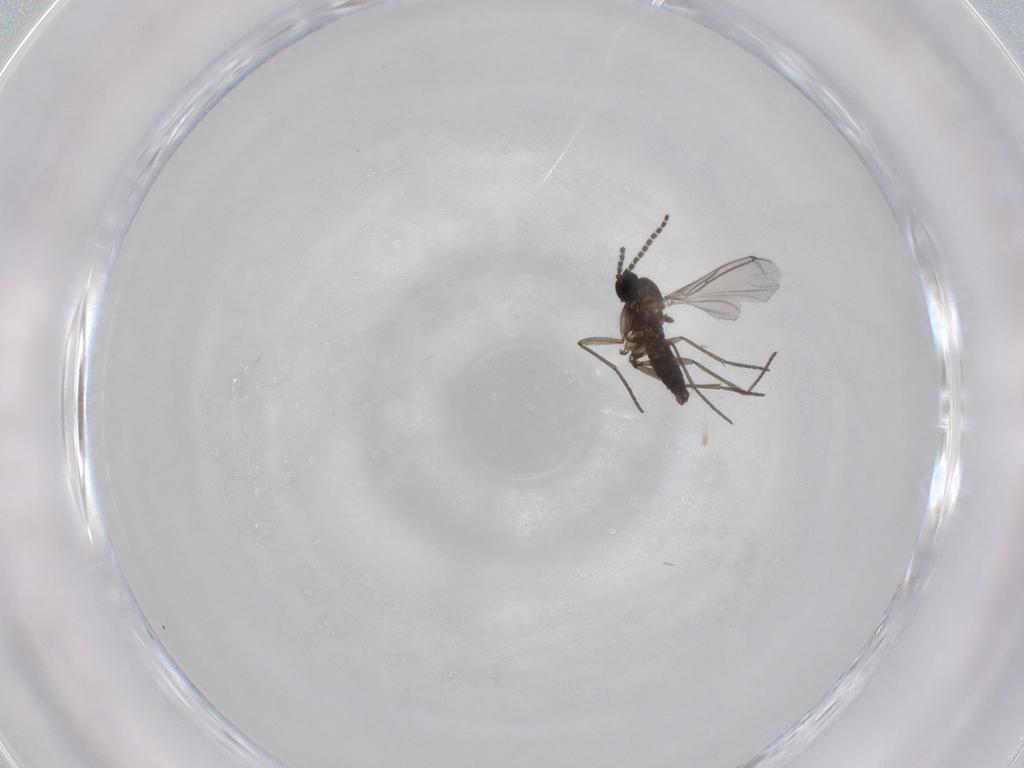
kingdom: Animalia
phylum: Arthropoda
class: Insecta
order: Diptera
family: Sciaridae
